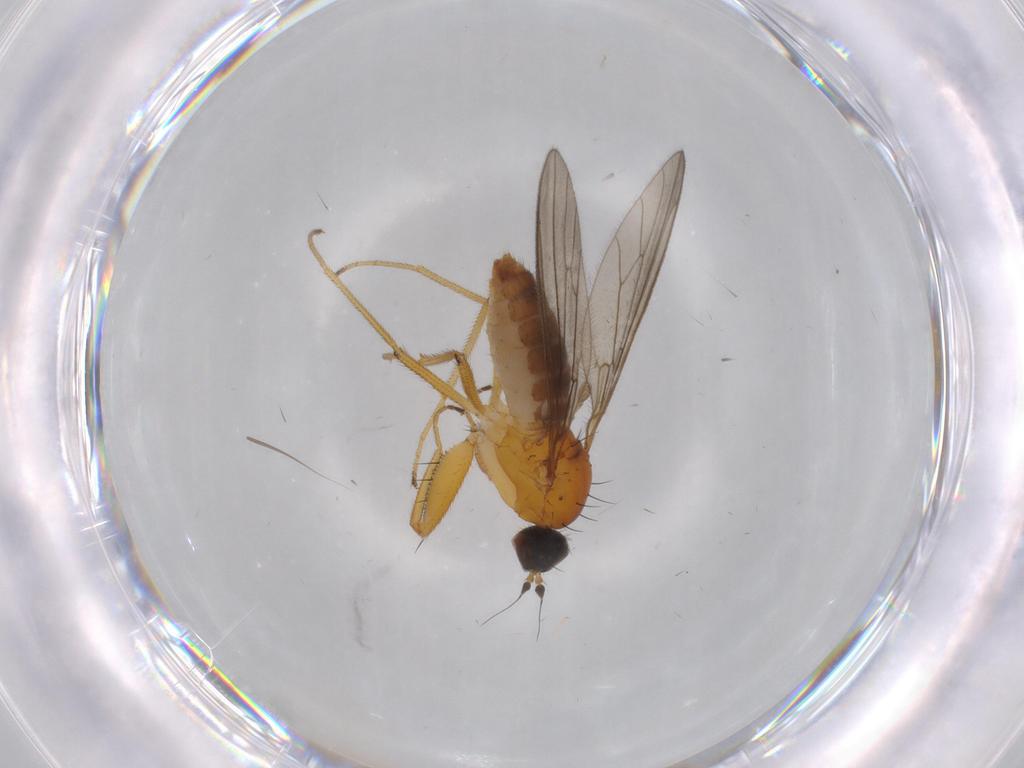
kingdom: Animalia
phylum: Arthropoda
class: Insecta
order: Diptera
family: Empididae
